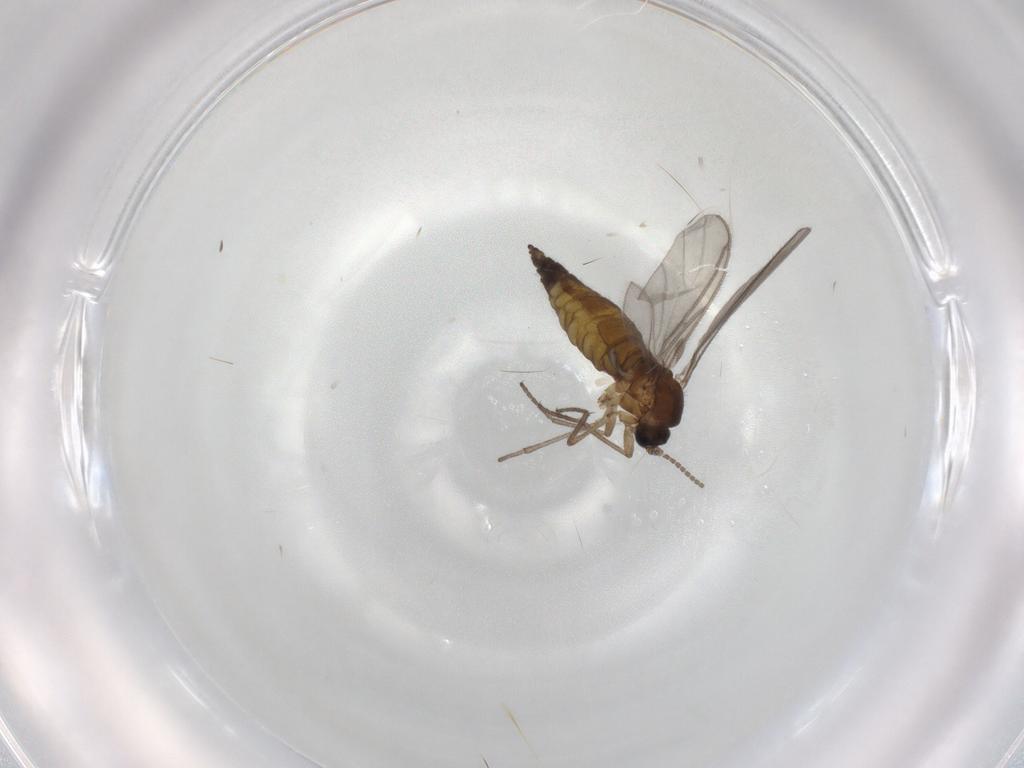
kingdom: Animalia
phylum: Arthropoda
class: Insecta
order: Diptera
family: Sciaridae
